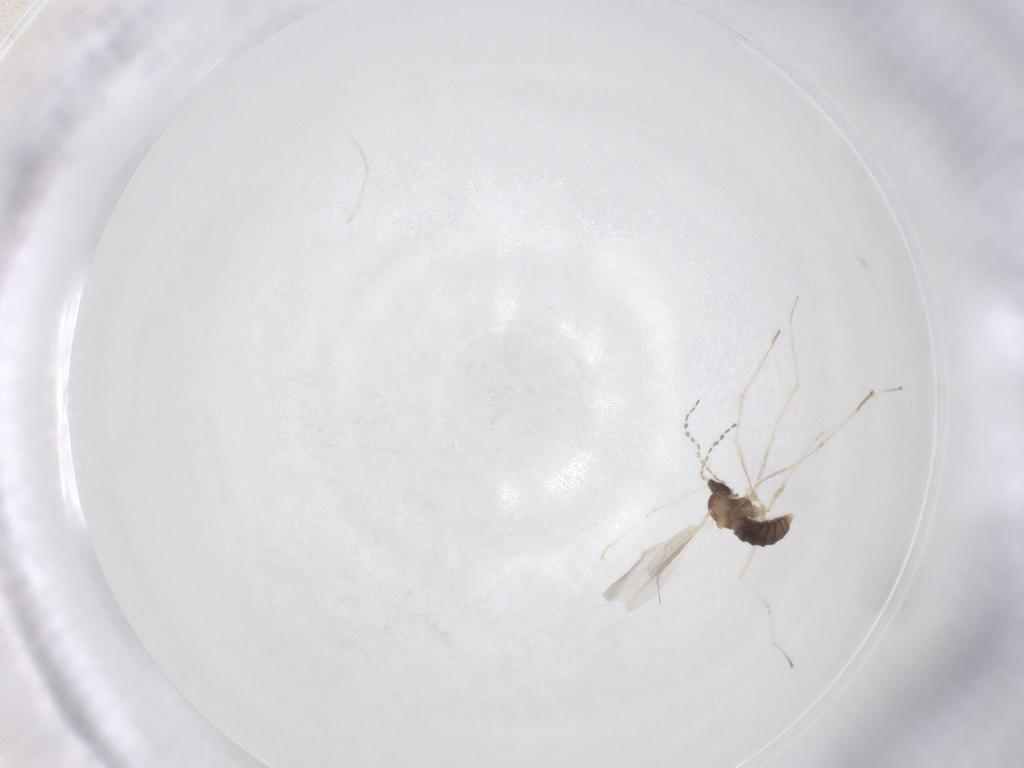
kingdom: Animalia
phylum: Arthropoda
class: Insecta
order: Diptera
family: Cecidomyiidae
